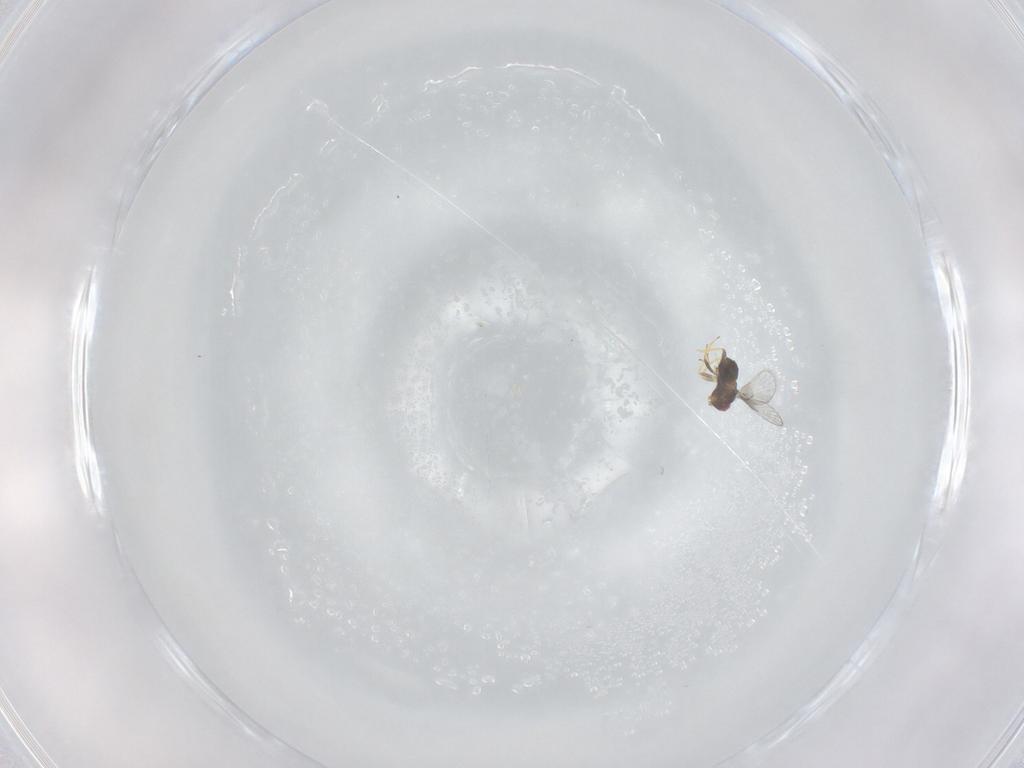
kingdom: Animalia
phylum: Arthropoda
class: Insecta
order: Hymenoptera
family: Trichogrammatidae
